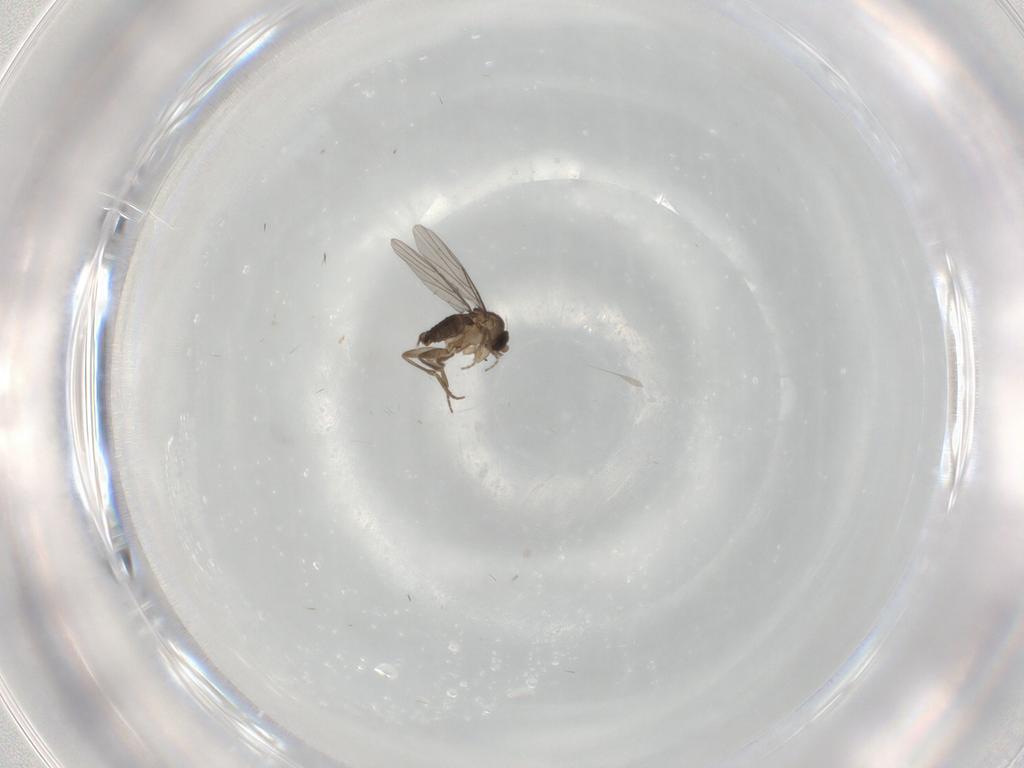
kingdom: Animalia
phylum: Arthropoda
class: Insecta
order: Diptera
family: Phoridae
